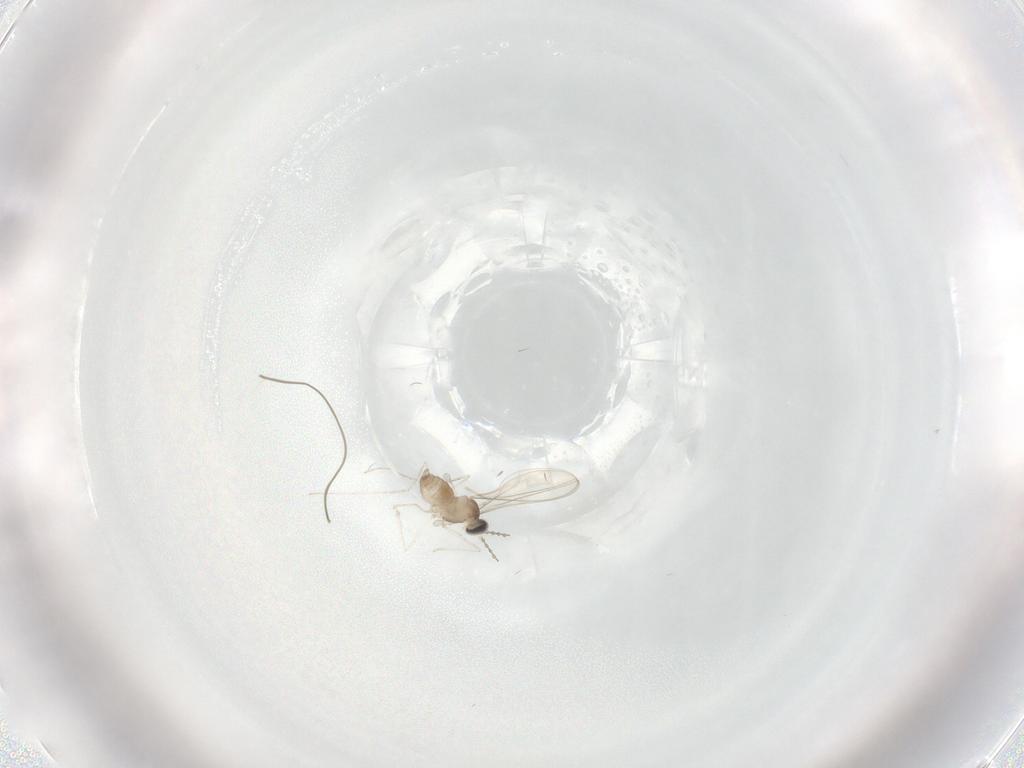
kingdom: Animalia
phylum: Arthropoda
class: Insecta
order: Diptera
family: Cecidomyiidae
